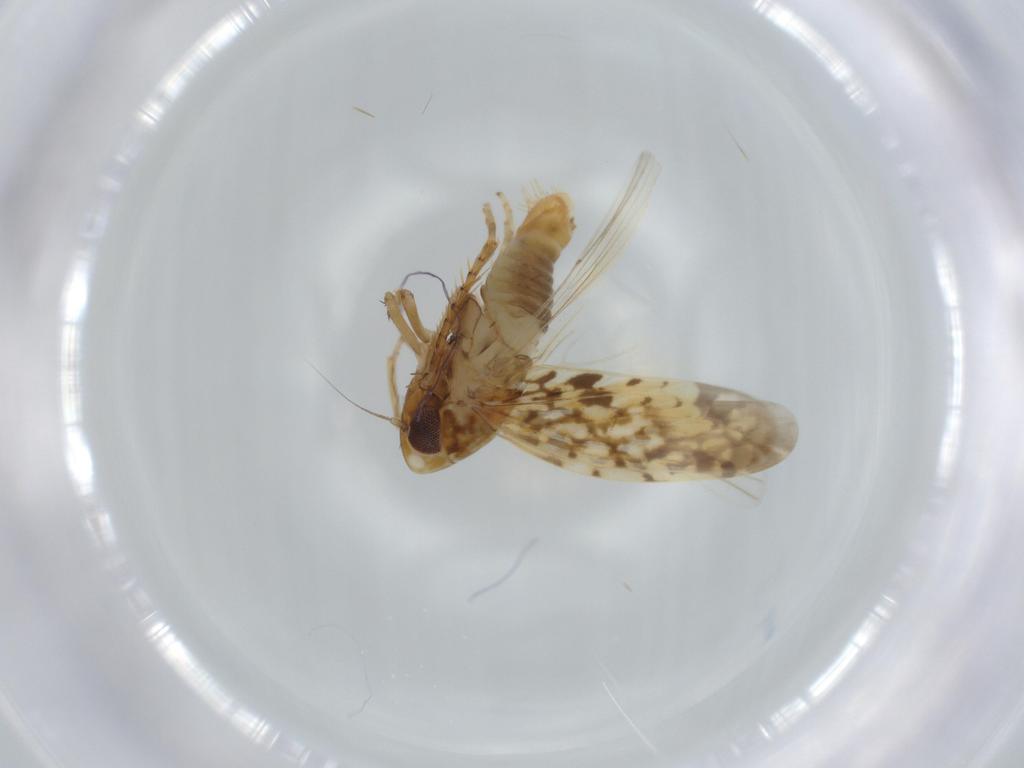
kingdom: Animalia
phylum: Arthropoda
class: Insecta
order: Hemiptera
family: Cicadellidae
